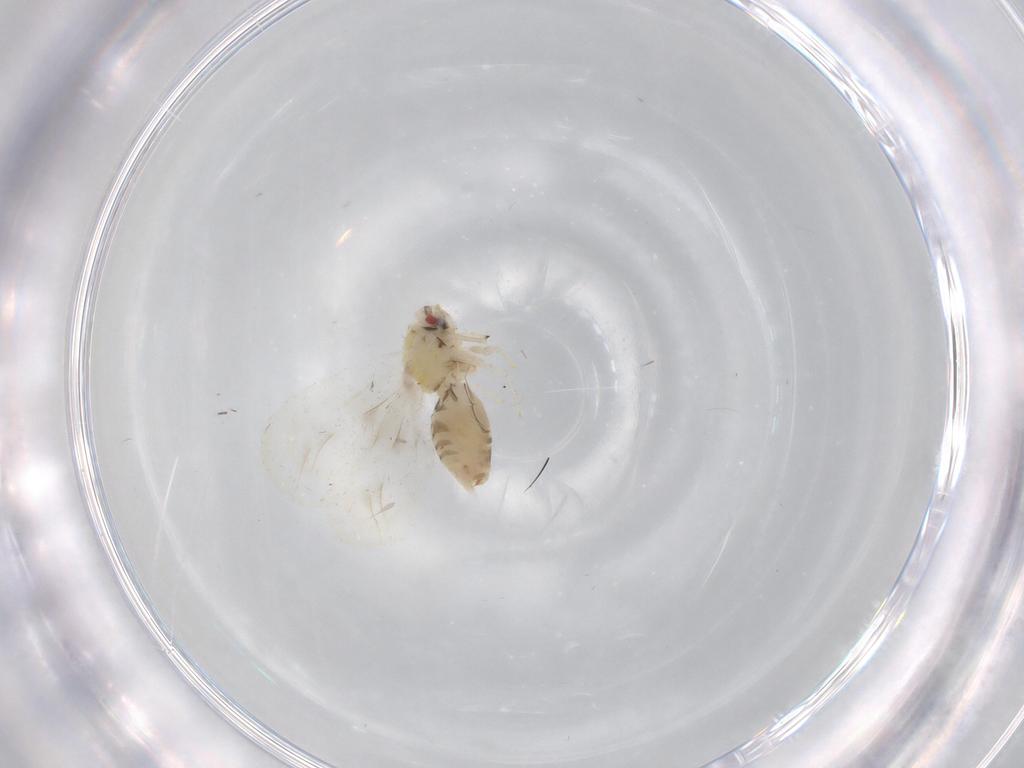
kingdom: Animalia
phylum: Arthropoda
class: Insecta
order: Hemiptera
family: Aleyrodidae
